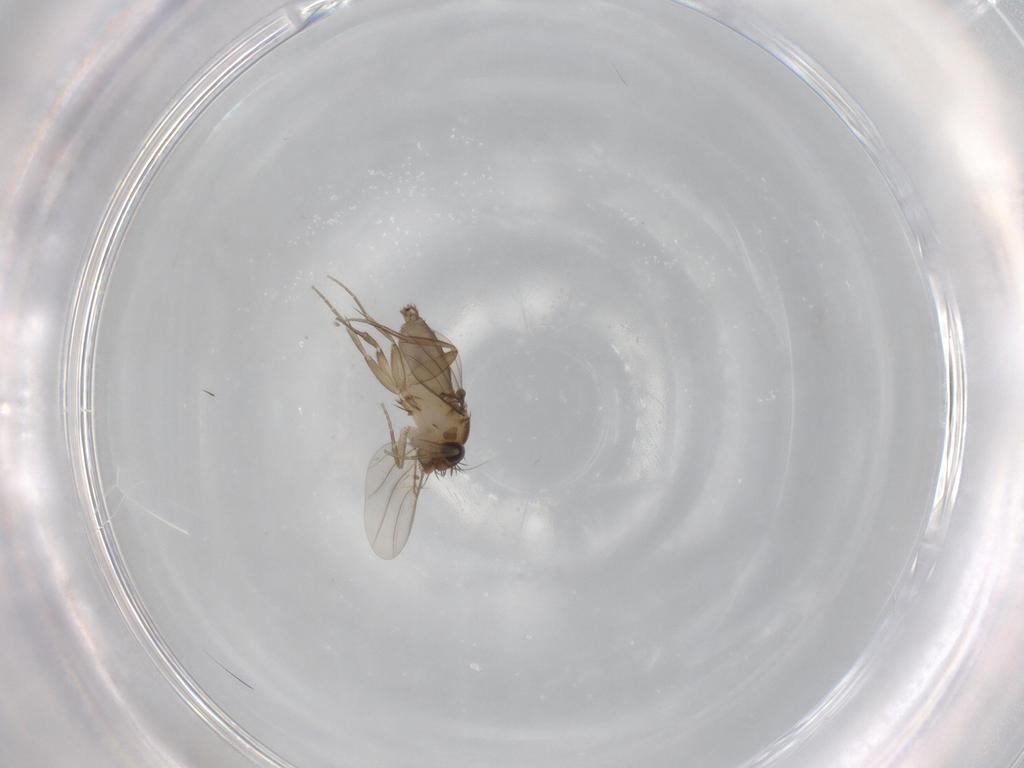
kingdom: Animalia
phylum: Arthropoda
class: Insecta
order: Diptera
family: Phoridae
